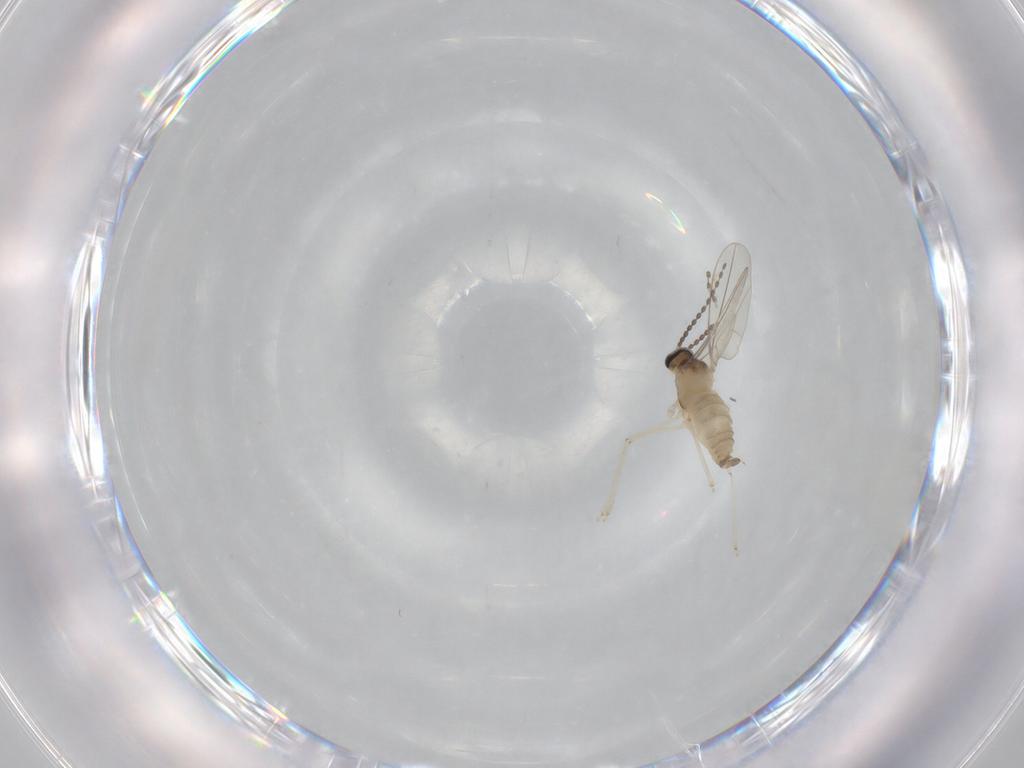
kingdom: Animalia
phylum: Arthropoda
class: Insecta
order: Diptera
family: Cecidomyiidae
